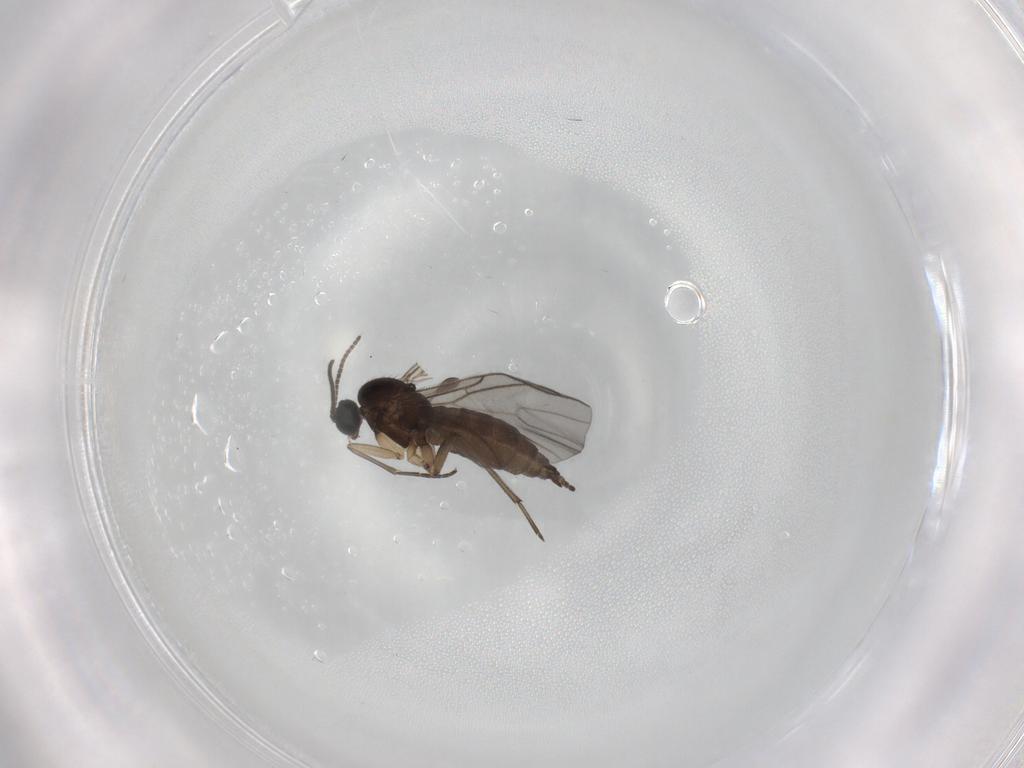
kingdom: Animalia
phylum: Arthropoda
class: Insecta
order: Diptera
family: Sciaridae
